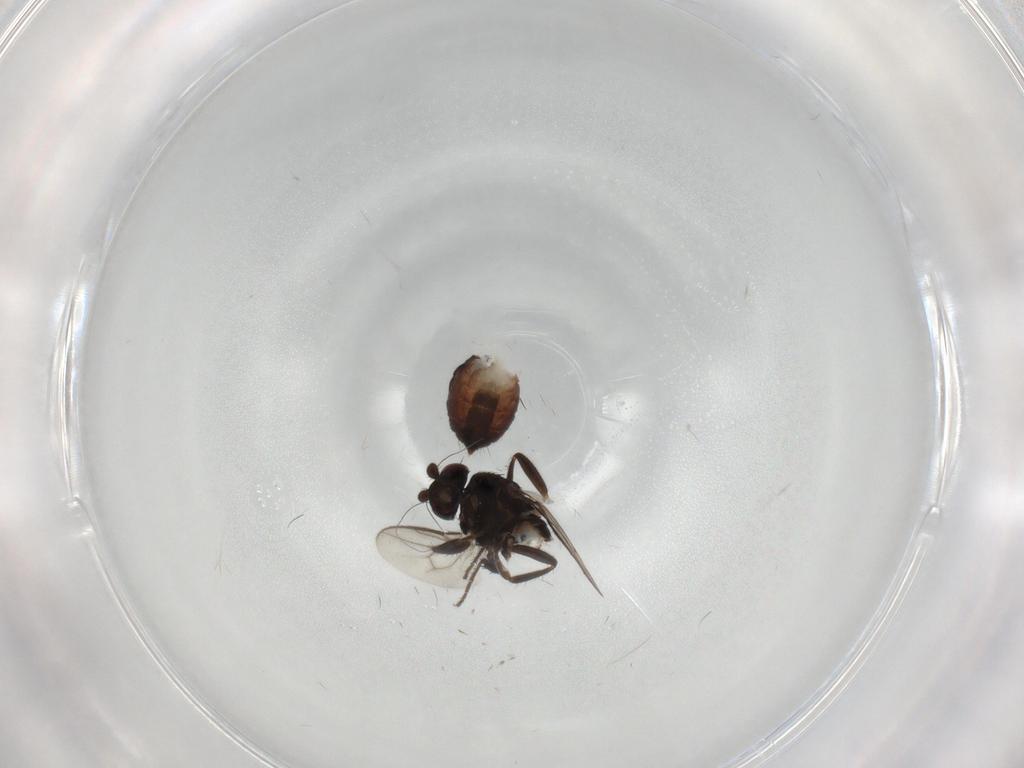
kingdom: Animalia
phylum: Arthropoda
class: Insecta
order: Diptera
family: Sphaeroceridae
